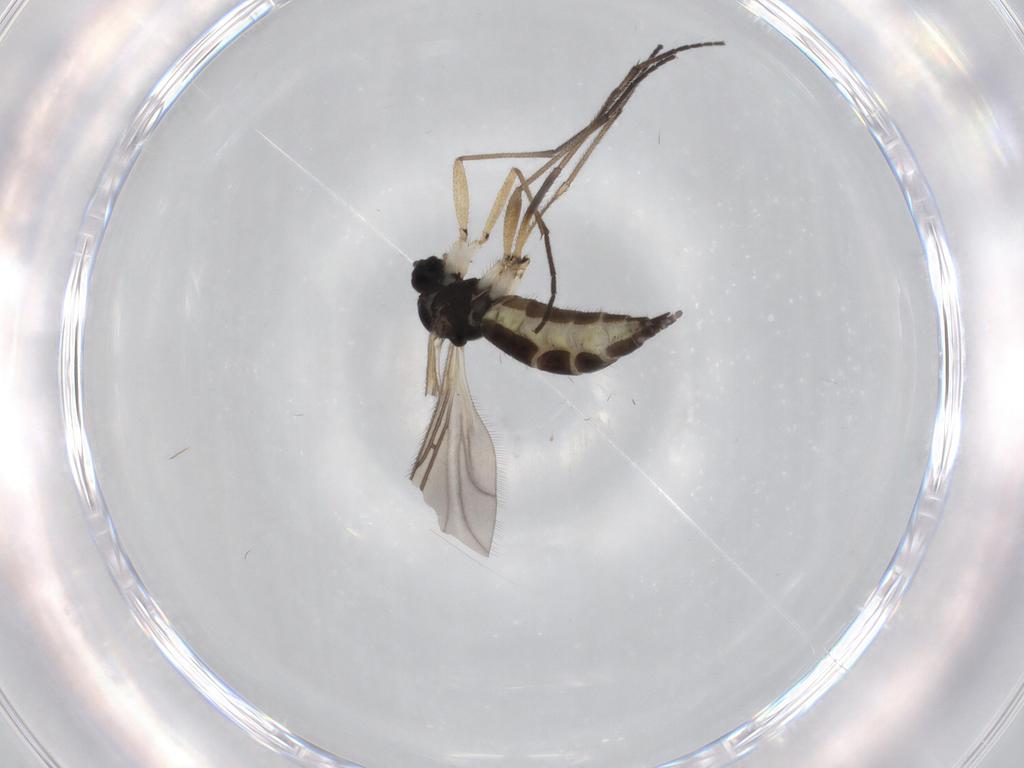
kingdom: Animalia
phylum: Arthropoda
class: Insecta
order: Diptera
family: Sciaridae
